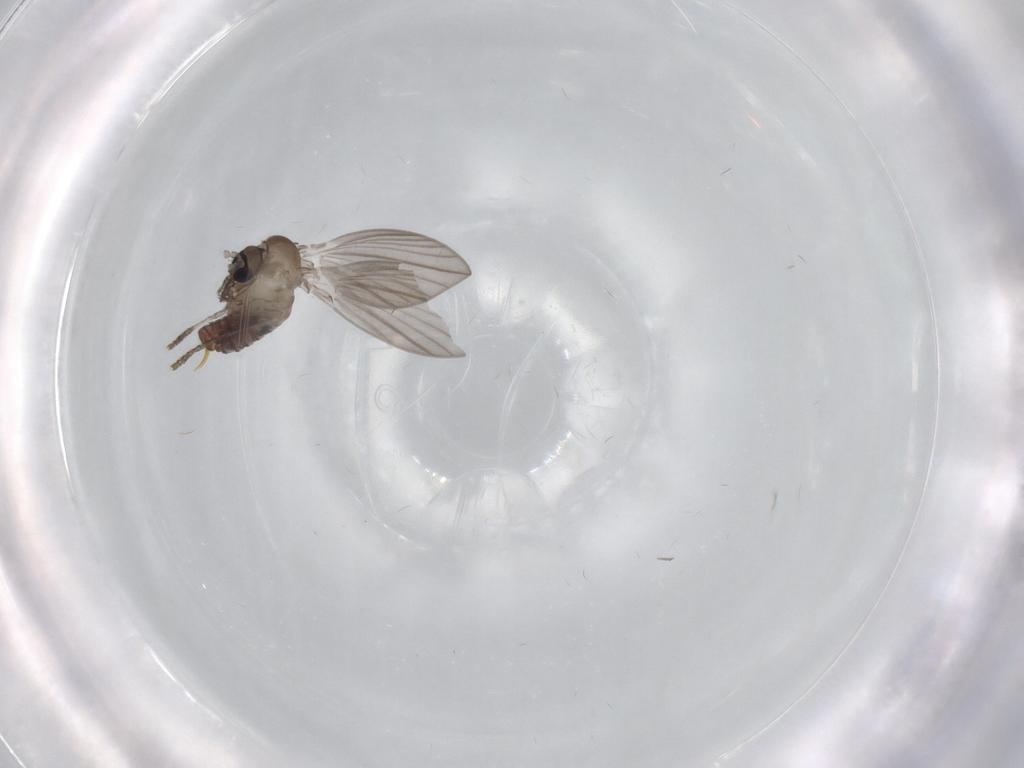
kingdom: Animalia
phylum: Arthropoda
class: Insecta
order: Diptera
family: Psychodidae
